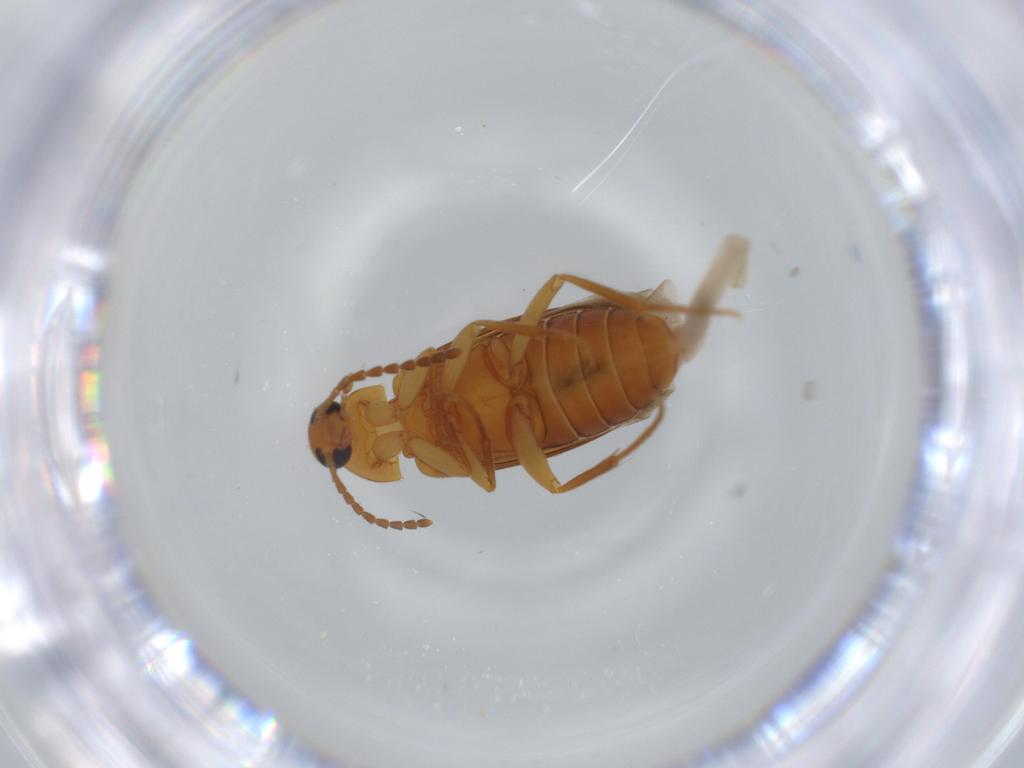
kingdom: Animalia
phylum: Arthropoda
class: Insecta
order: Coleoptera
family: Scraptiidae
